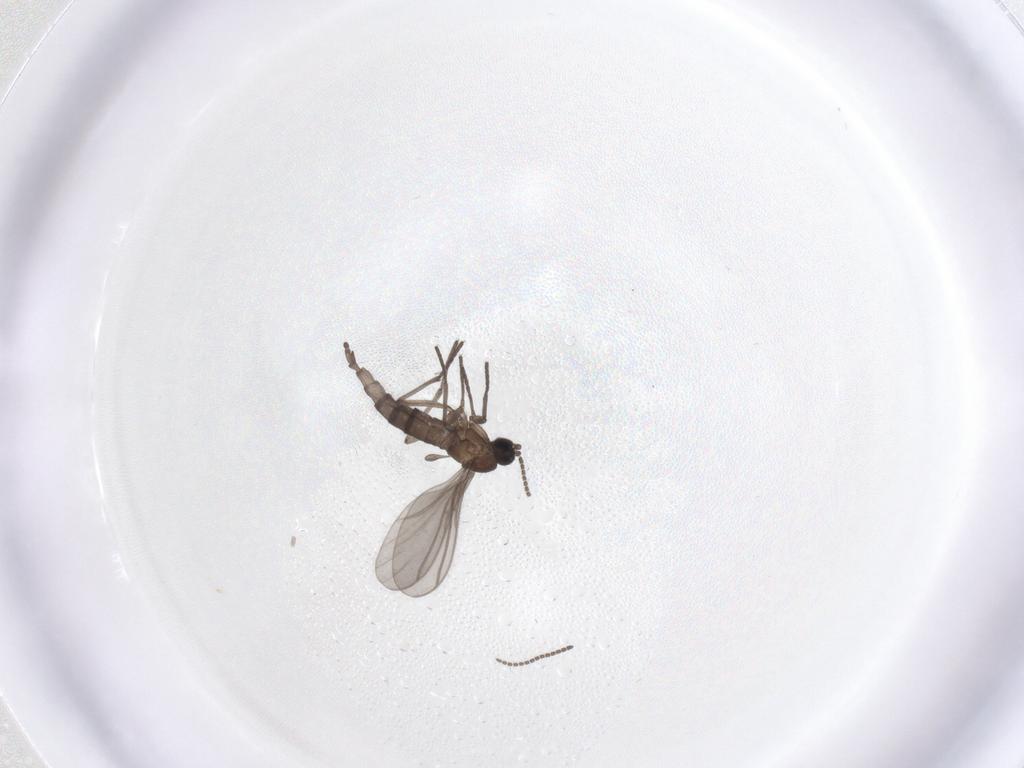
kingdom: Animalia
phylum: Arthropoda
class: Insecta
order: Diptera
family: Sciaridae
